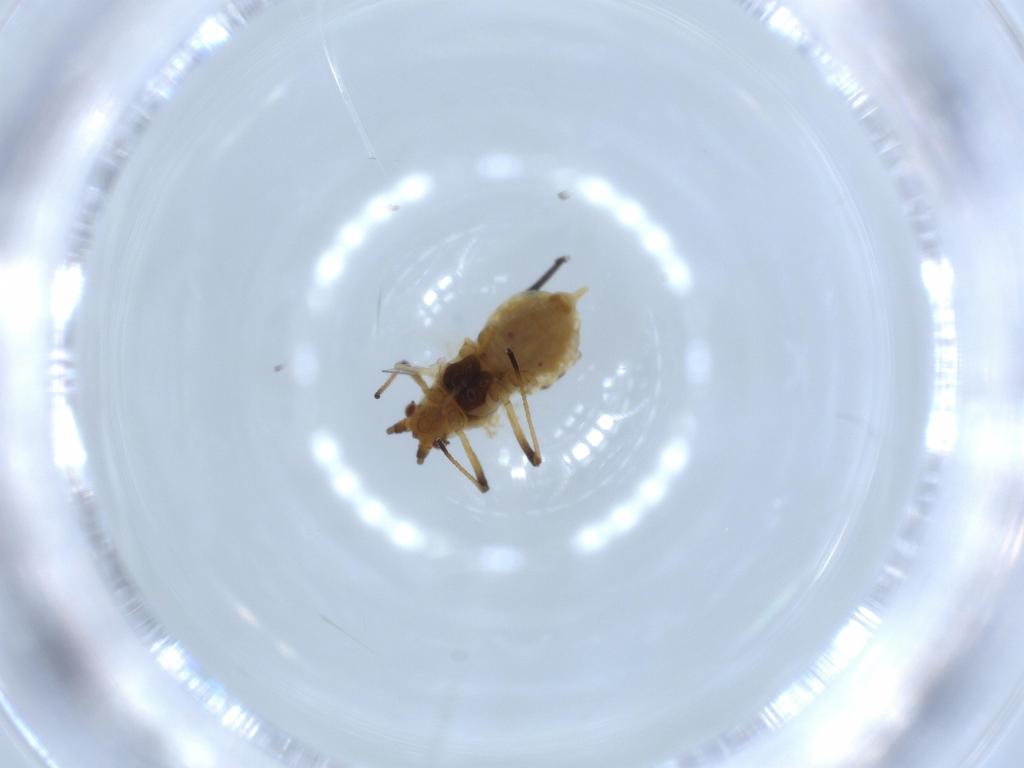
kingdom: Animalia
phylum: Arthropoda
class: Insecta
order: Hemiptera
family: Aphididae
